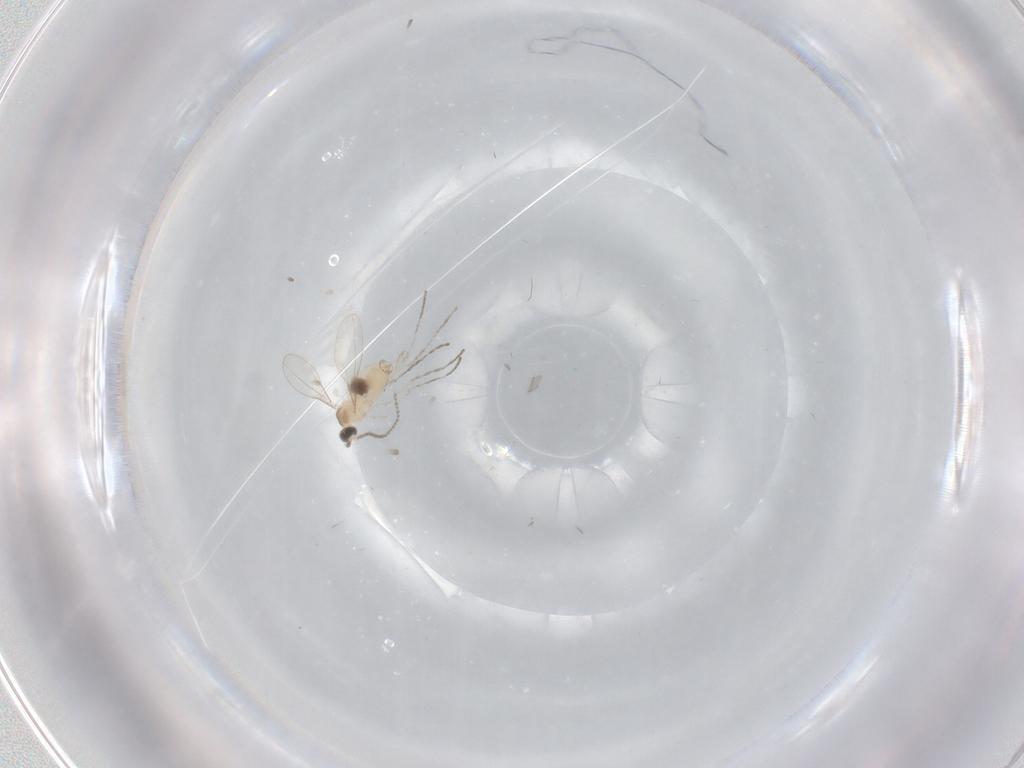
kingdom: Animalia
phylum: Arthropoda
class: Insecta
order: Diptera
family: Cecidomyiidae
